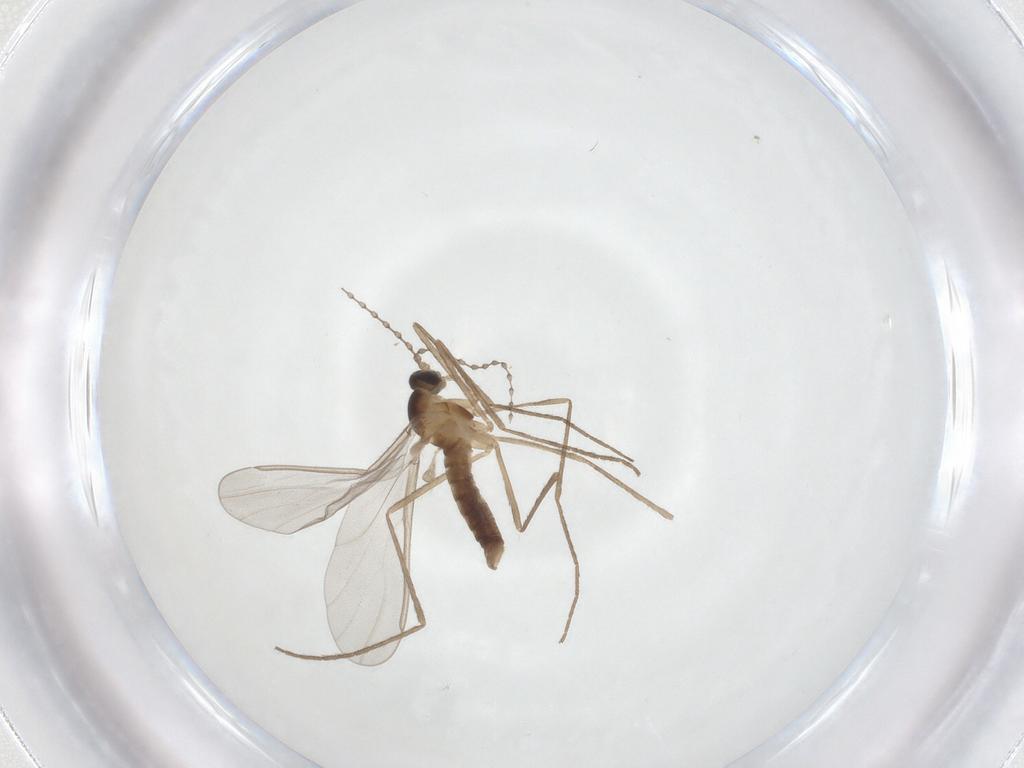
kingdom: Animalia
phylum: Arthropoda
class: Insecta
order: Diptera
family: Cecidomyiidae
